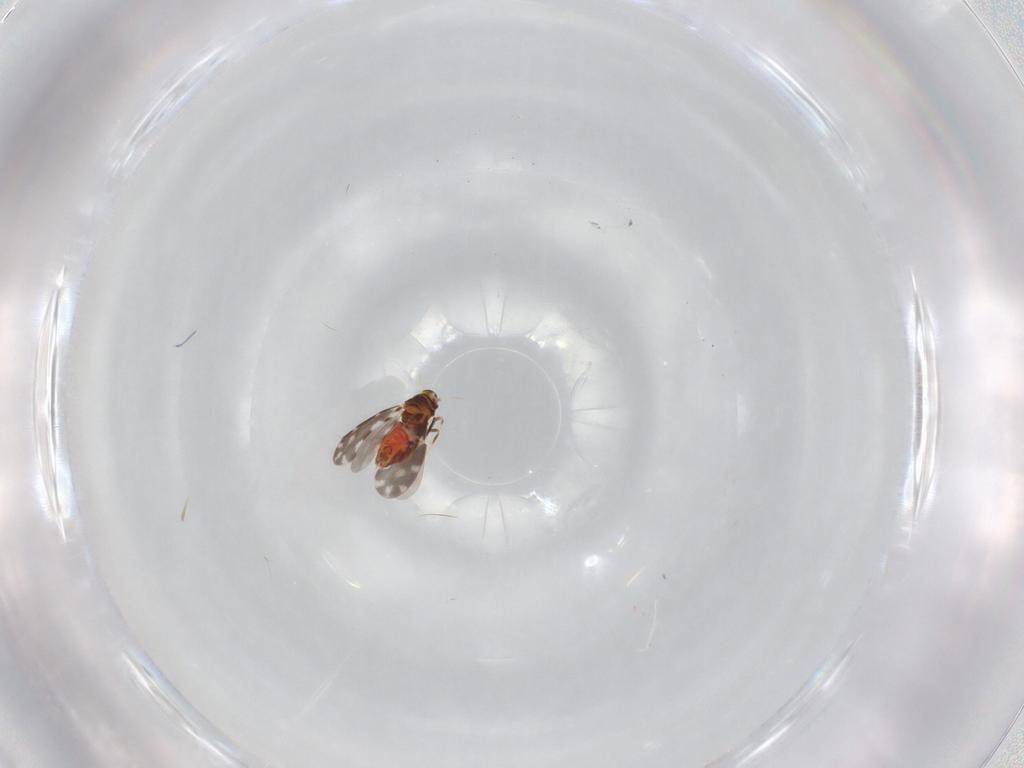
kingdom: Animalia
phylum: Arthropoda
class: Insecta
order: Hemiptera
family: Aleyrodidae
